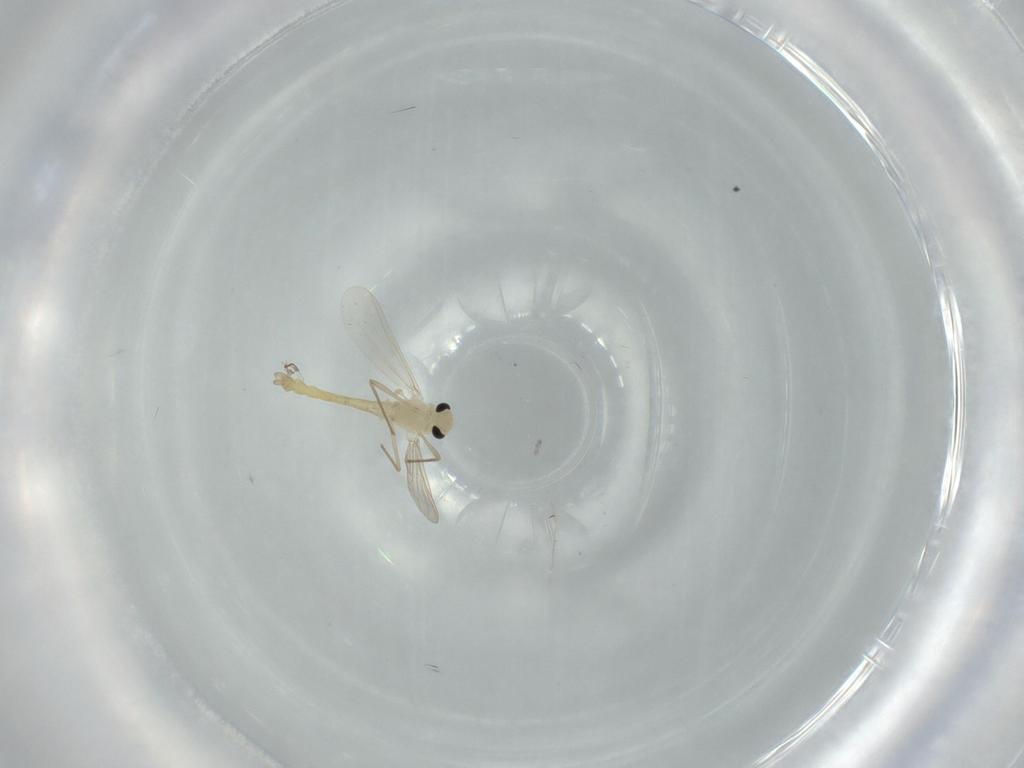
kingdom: Animalia
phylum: Arthropoda
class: Insecta
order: Diptera
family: Chironomidae
